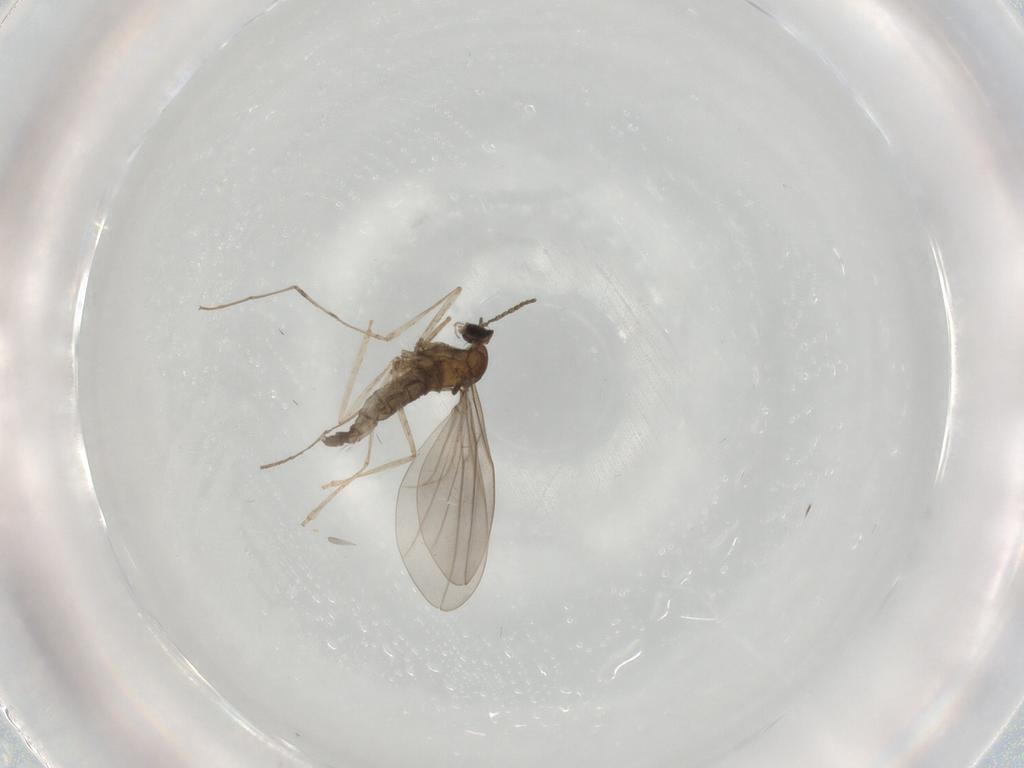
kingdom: Animalia
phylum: Arthropoda
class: Insecta
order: Diptera
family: Cecidomyiidae
